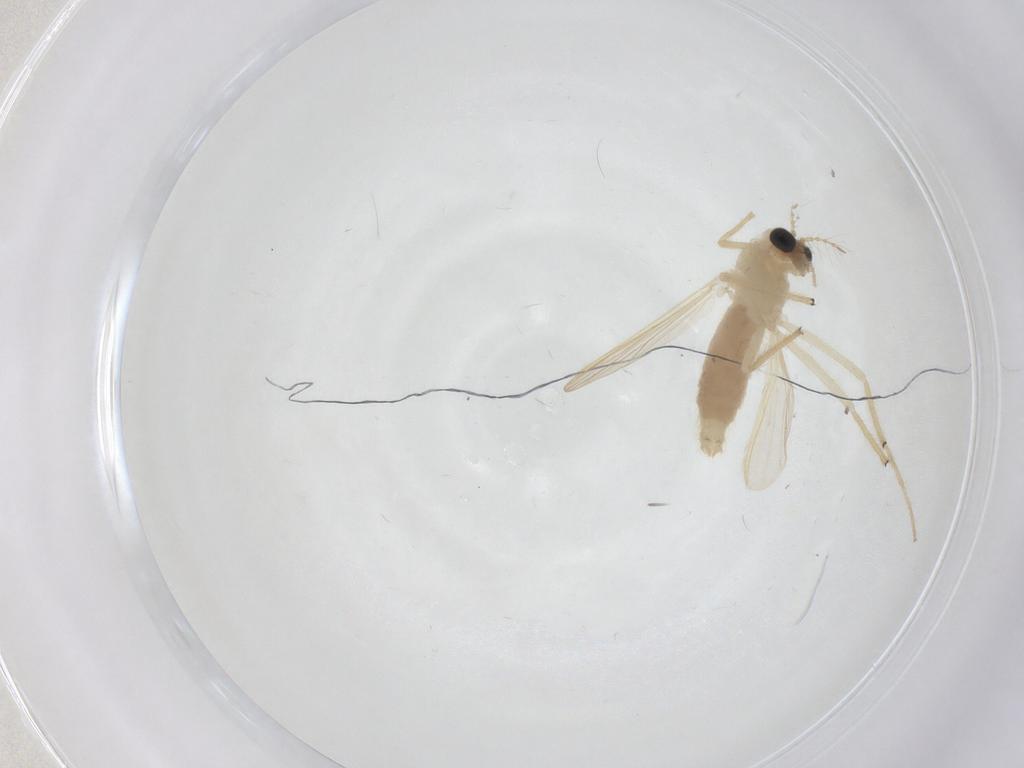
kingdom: Animalia
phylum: Arthropoda
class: Insecta
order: Diptera
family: Chironomidae
